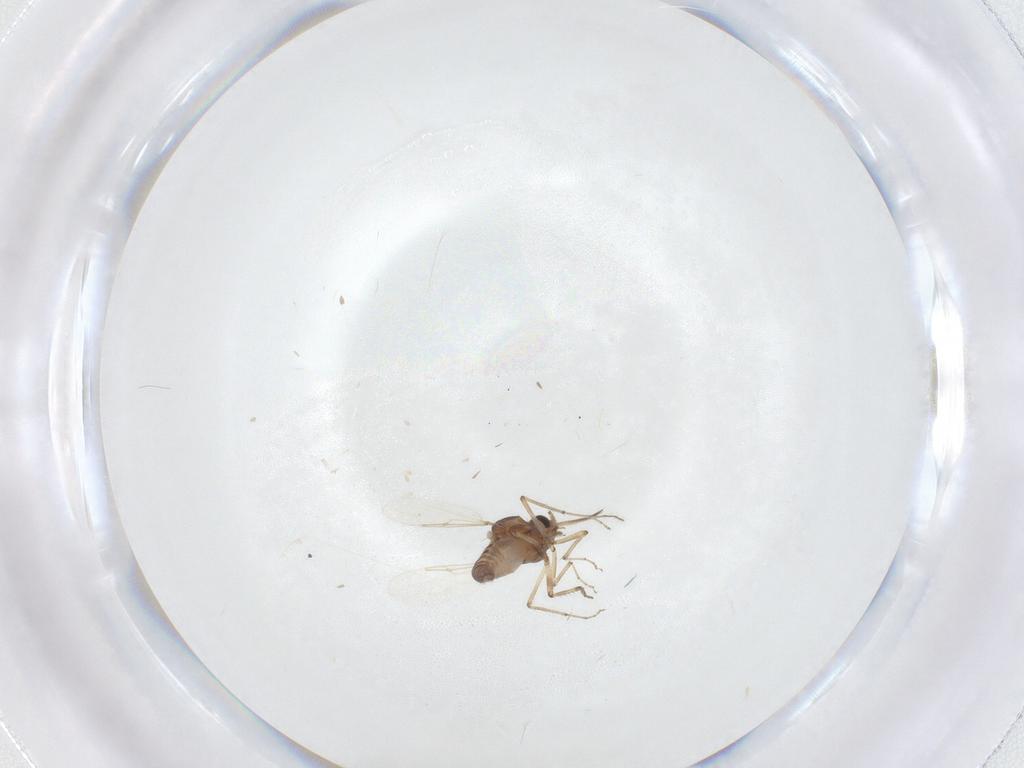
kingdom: Animalia
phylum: Arthropoda
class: Insecta
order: Diptera
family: Ceratopogonidae
